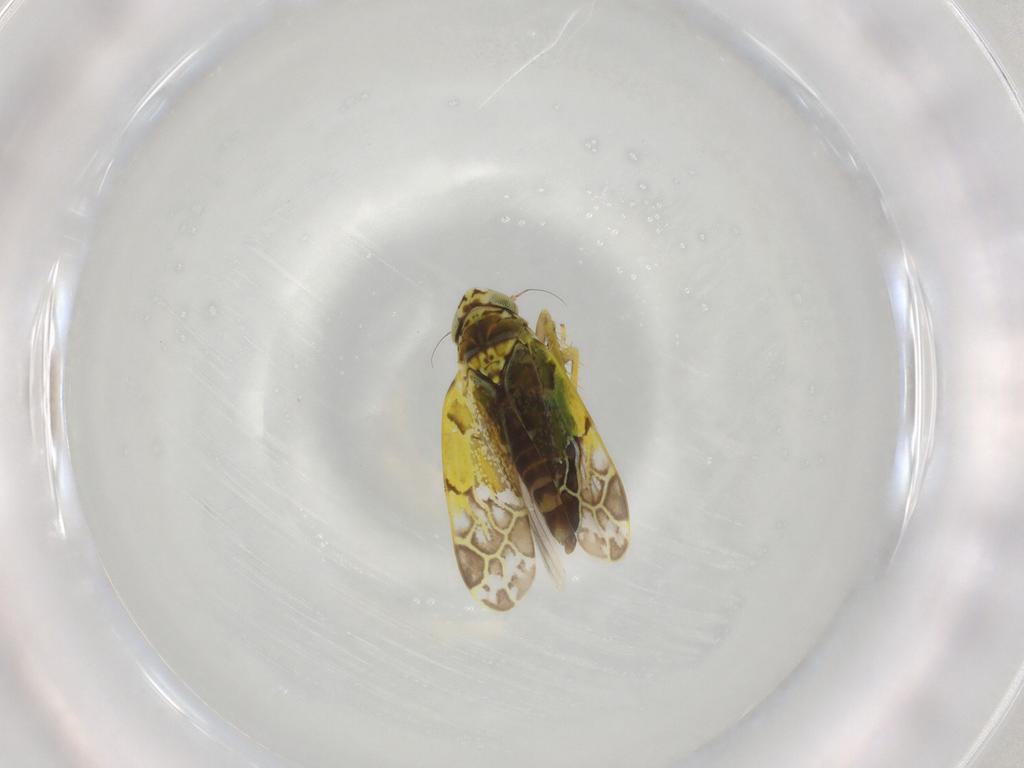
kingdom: Animalia
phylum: Arthropoda
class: Insecta
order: Hemiptera
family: Cicadellidae
